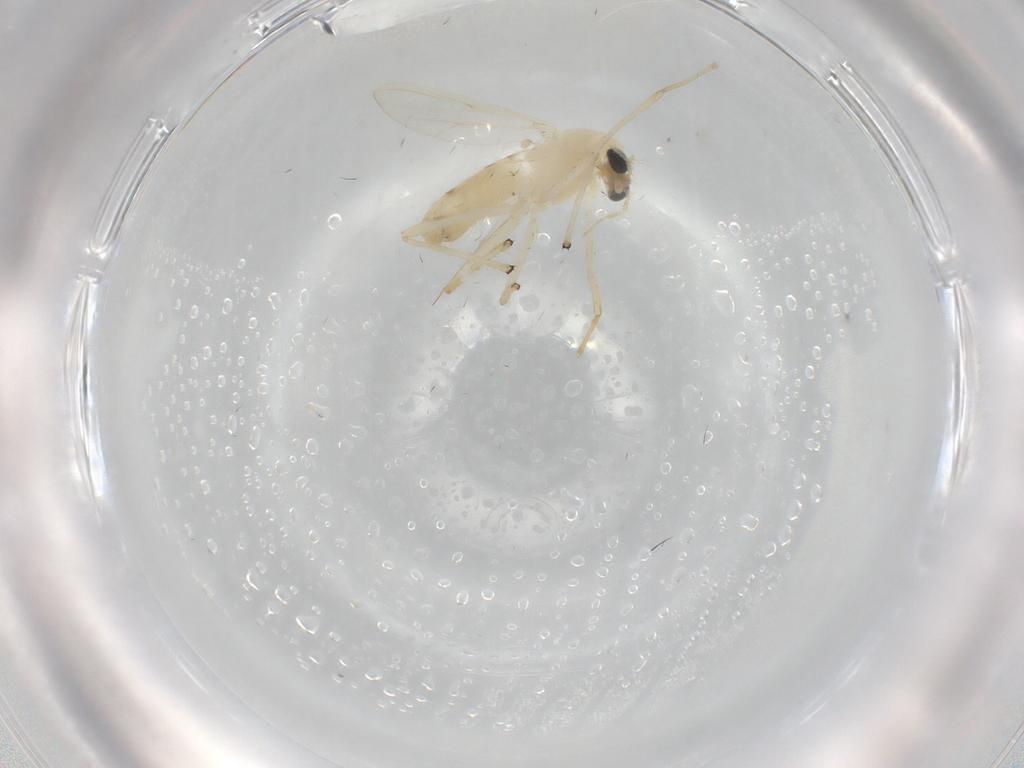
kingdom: Animalia
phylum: Arthropoda
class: Insecta
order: Diptera
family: Chironomidae
